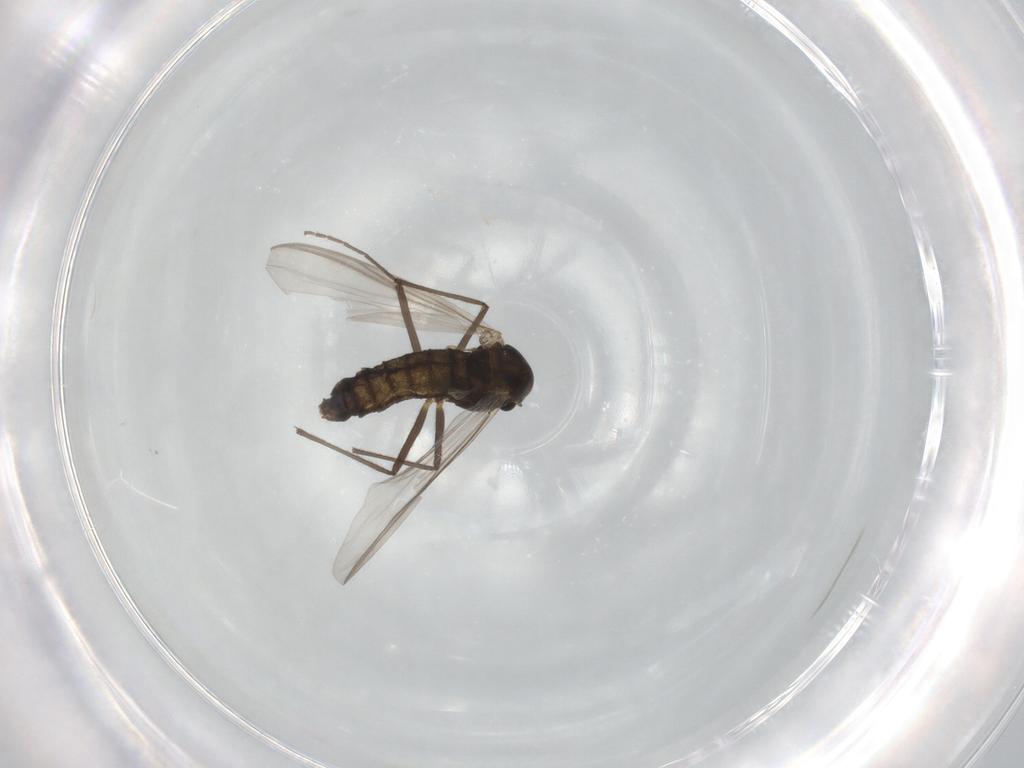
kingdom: Animalia
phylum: Arthropoda
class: Insecta
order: Diptera
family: Chironomidae
